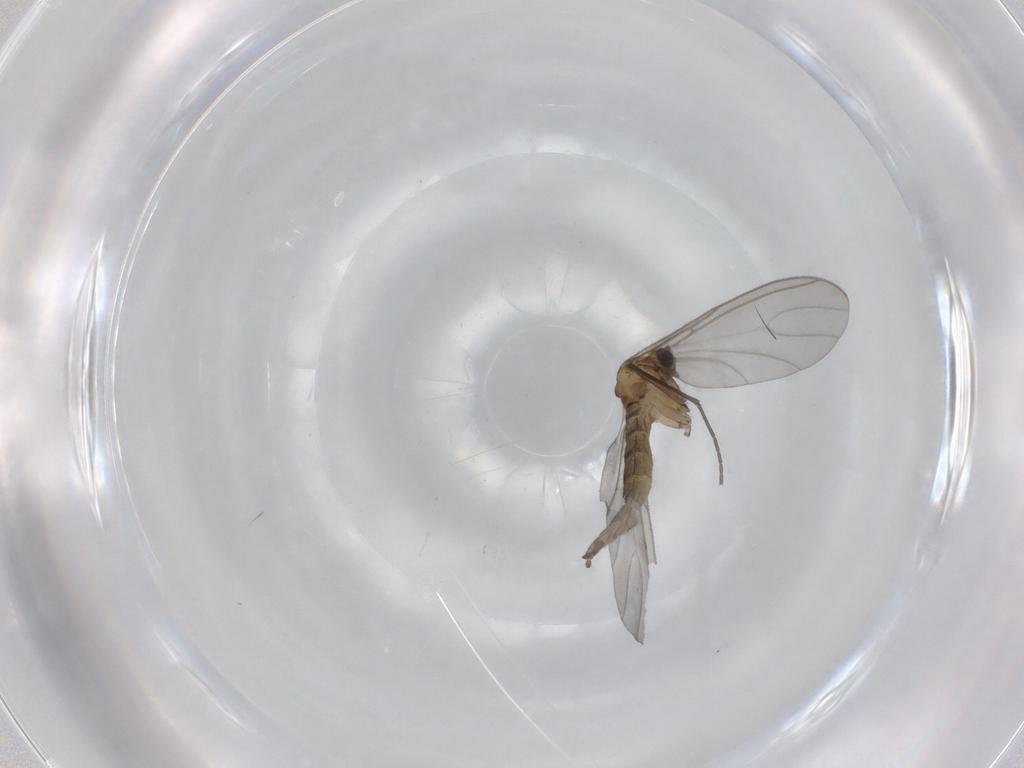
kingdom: Animalia
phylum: Arthropoda
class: Insecta
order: Diptera
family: Sciaridae
